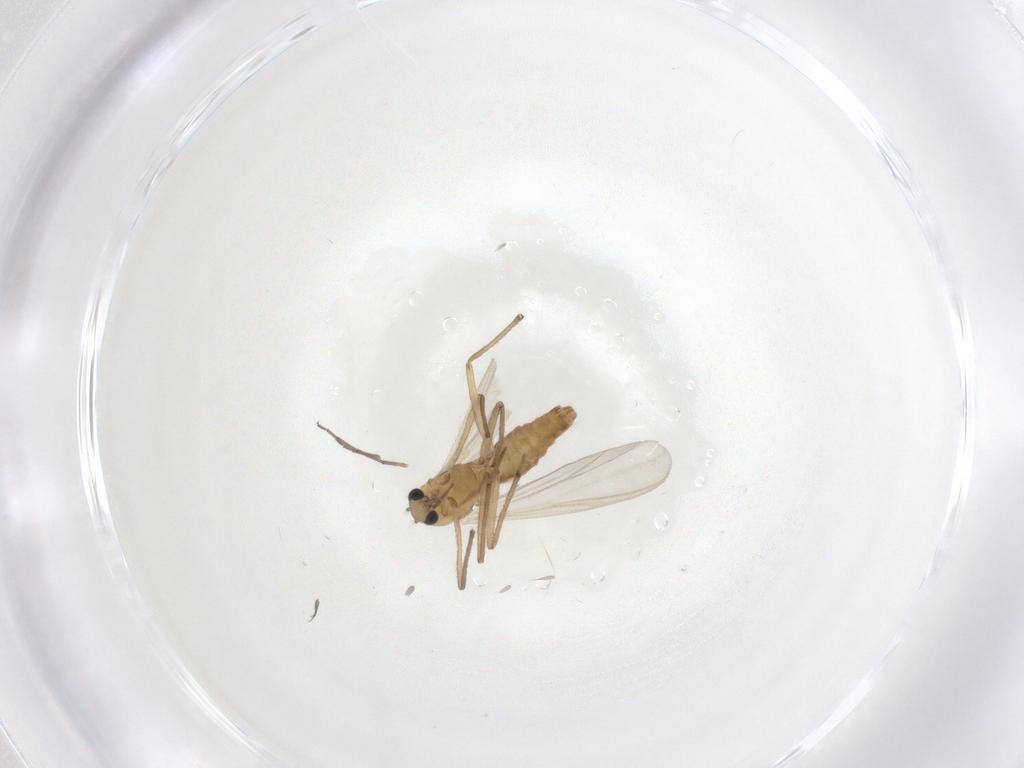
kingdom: Animalia
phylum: Arthropoda
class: Insecta
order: Diptera
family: Chironomidae
